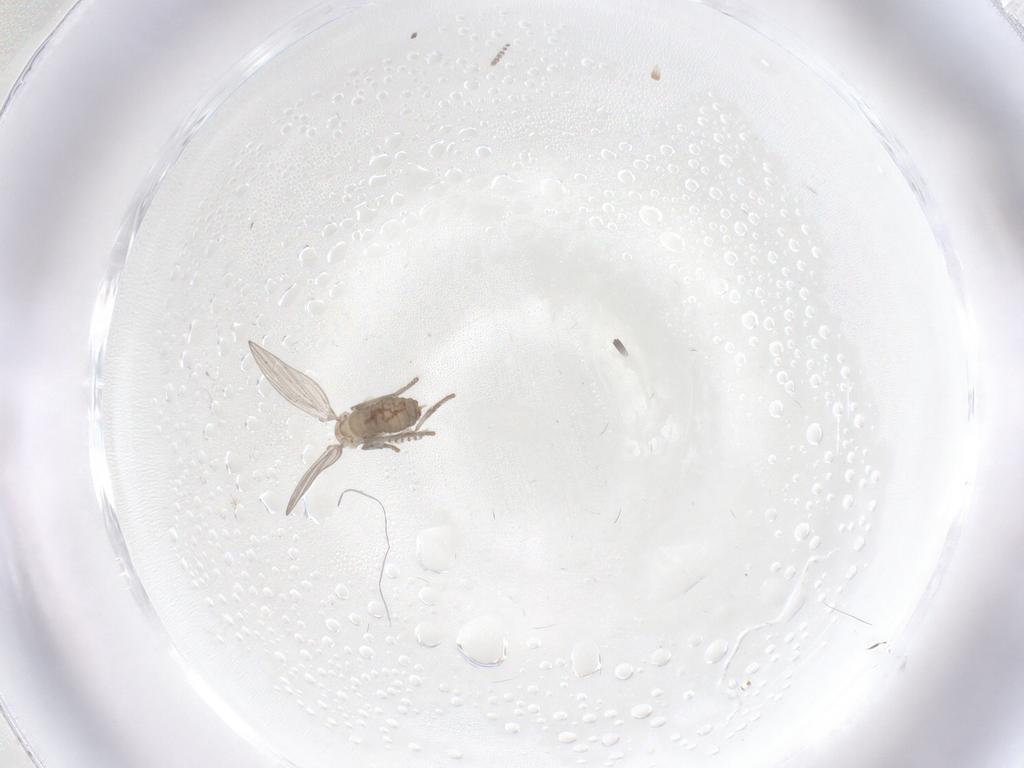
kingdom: Animalia
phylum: Arthropoda
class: Insecta
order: Diptera
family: Psychodidae
